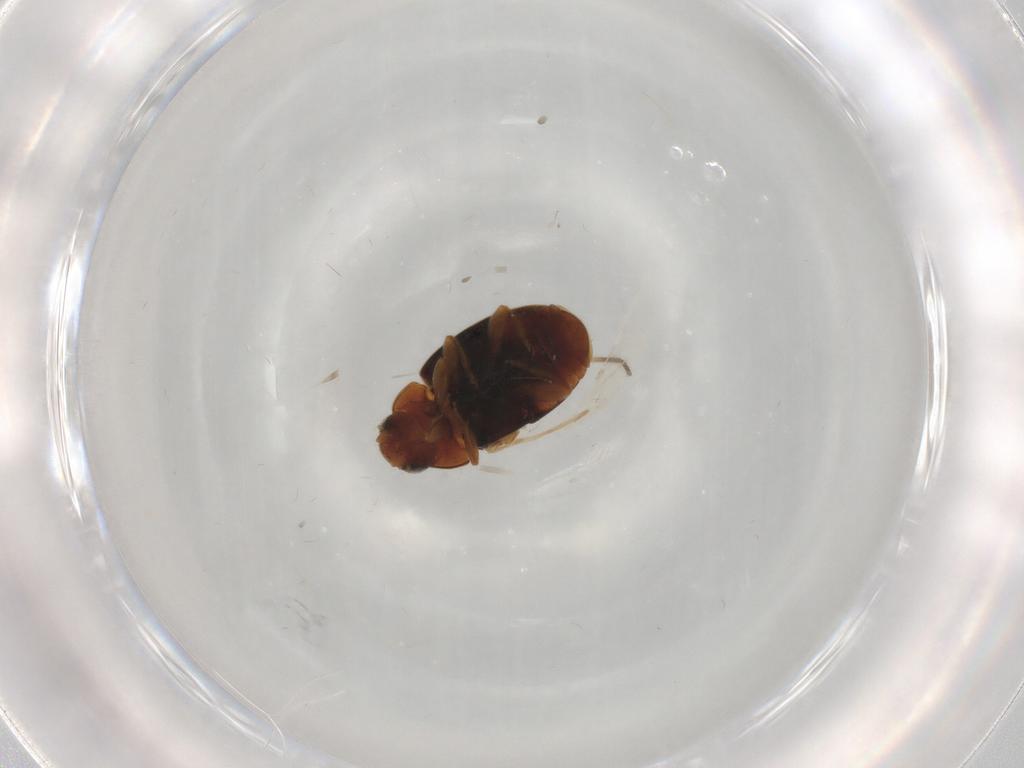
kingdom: Animalia
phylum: Arthropoda
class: Insecta
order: Coleoptera
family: Coccinellidae
